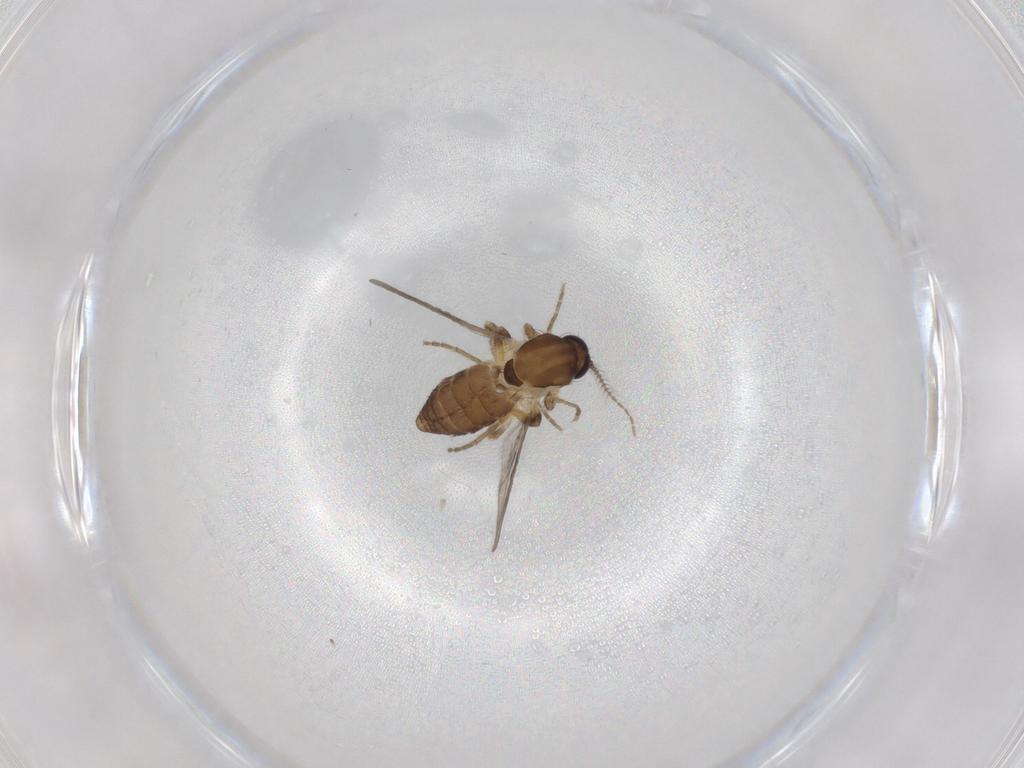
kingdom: Animalia
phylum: Arthropoda
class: Insecta
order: Diptera
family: Ceratopogonidae
